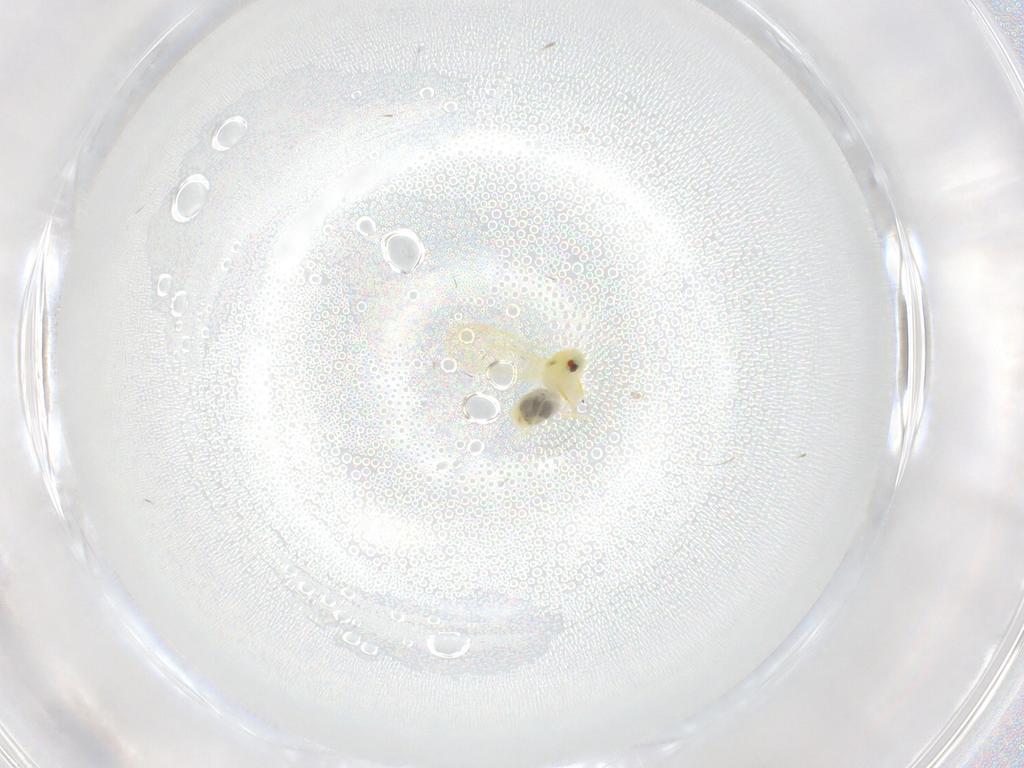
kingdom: Animalia
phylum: Arthropoda
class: Insecta
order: Hemiptera
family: Aleyrodidae
